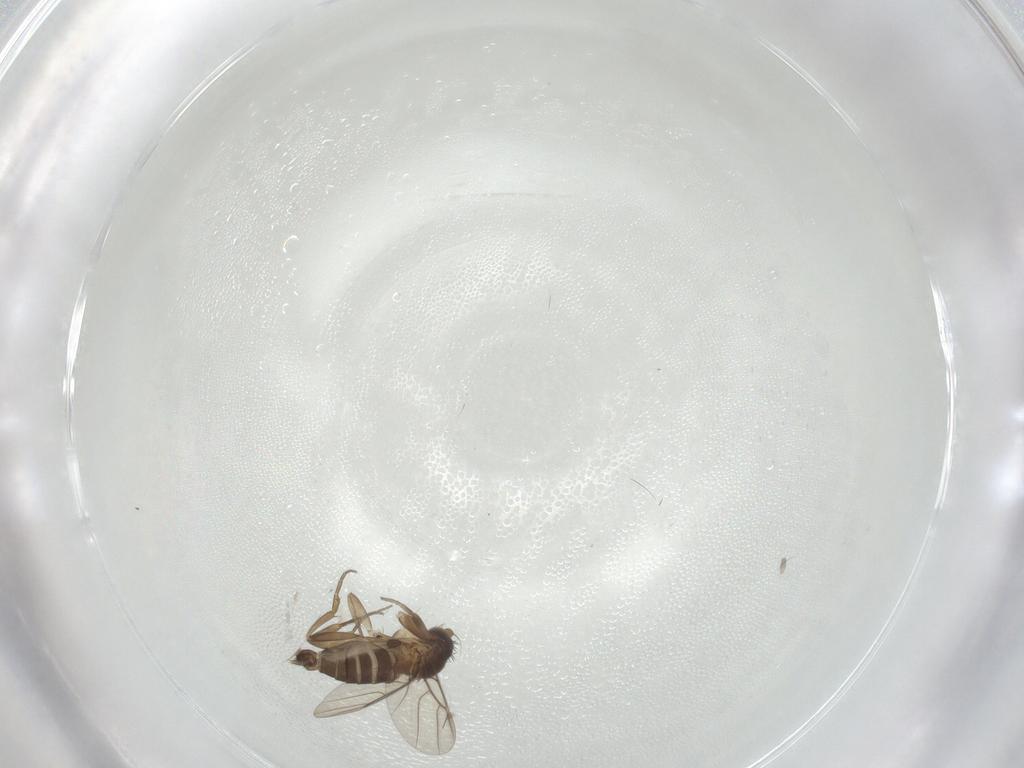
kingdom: Animalia
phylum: Arthropoda
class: Insecta
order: Diptera
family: Phoridae
